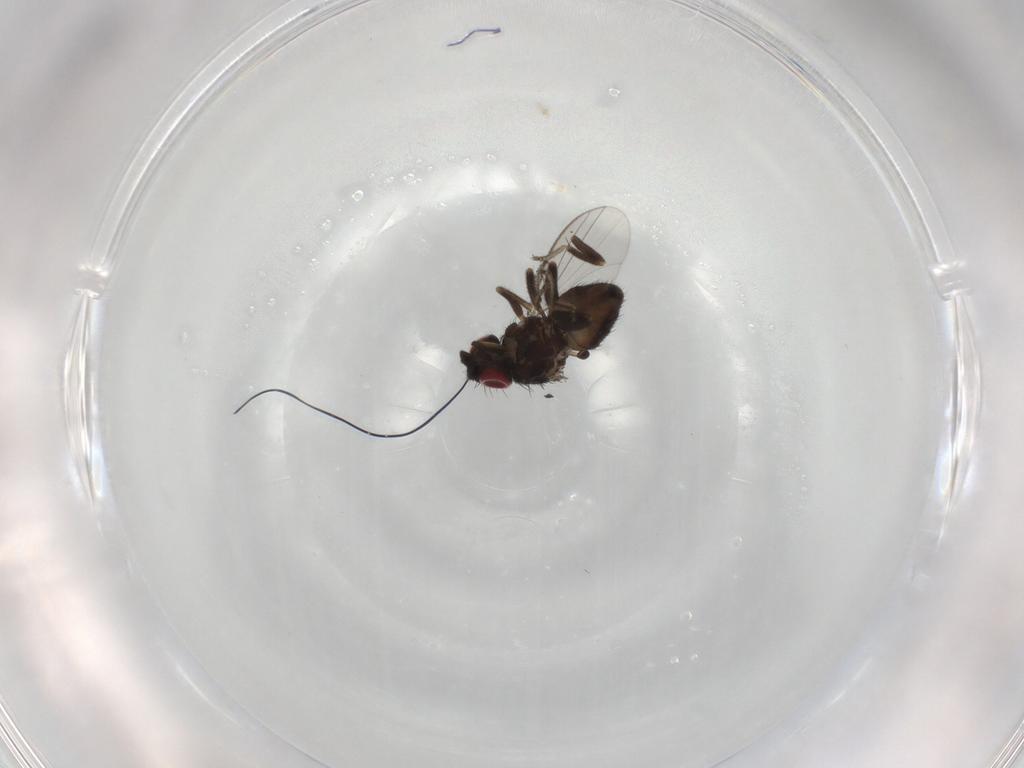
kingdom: Animalia
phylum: Arthropoda
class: Insecta
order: Diptera
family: Milichiidae
